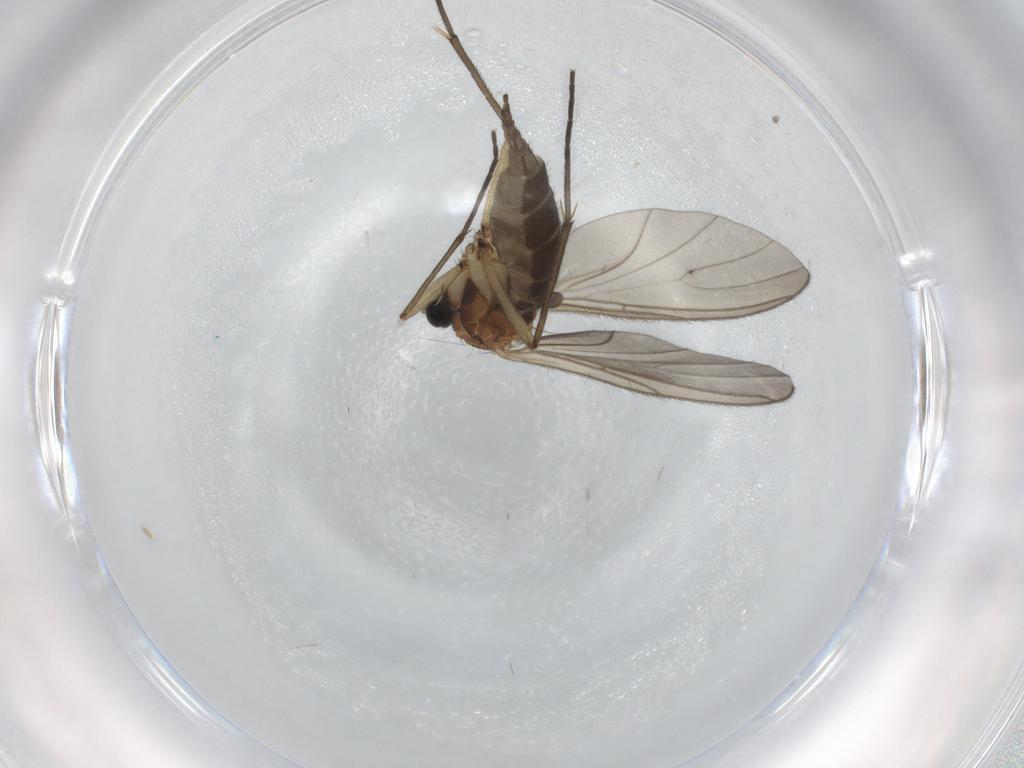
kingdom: Animalia
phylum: Arthropoda
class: Insecta
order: Diptera
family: Sciaridae
